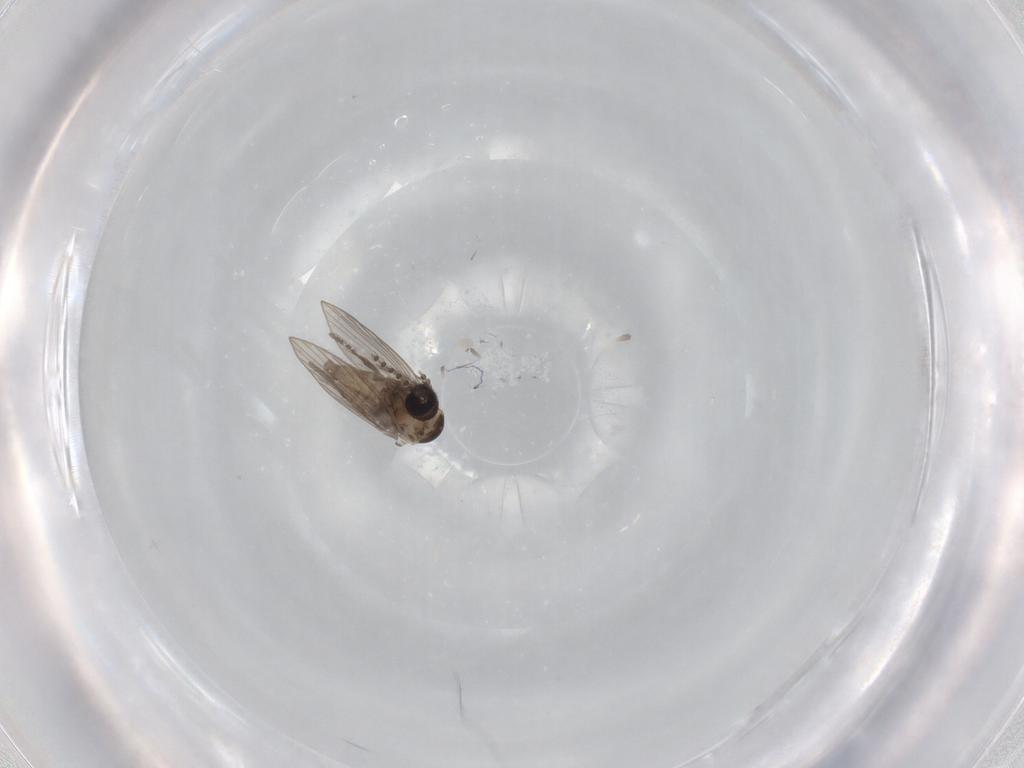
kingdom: Animalia
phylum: Arthropoda
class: Insecta
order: Diptera
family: Psychodidae
